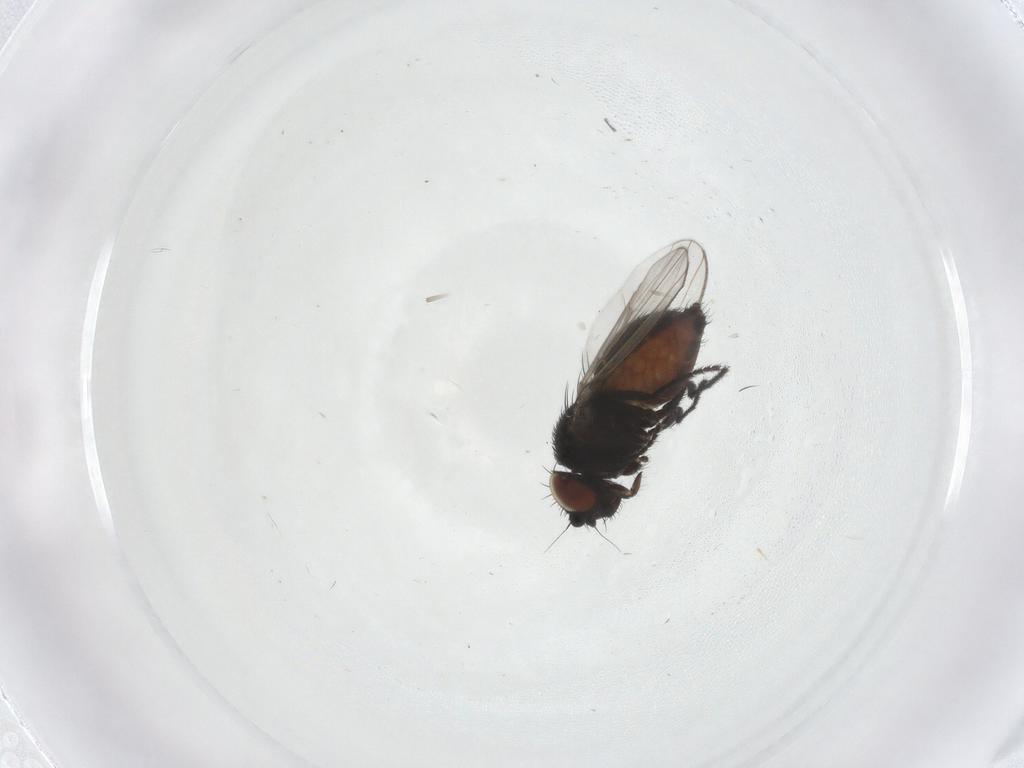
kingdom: Animalia
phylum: Arthropoda
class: Insecta
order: Diptera
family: Milichiidae
